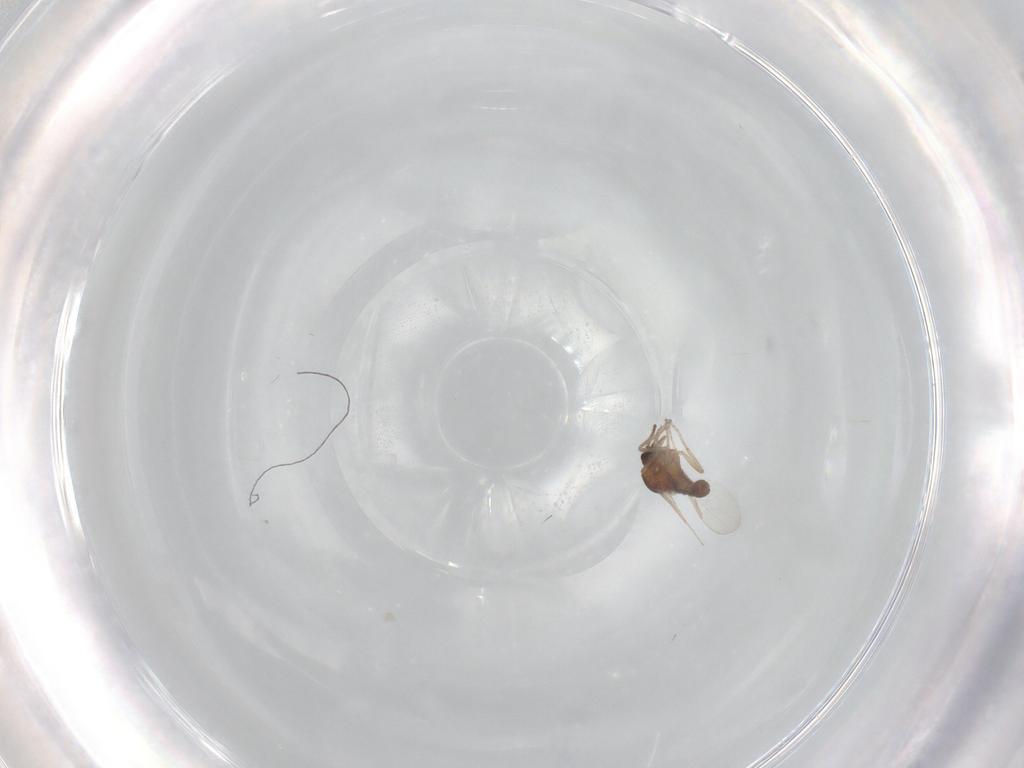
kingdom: Animalia
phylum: Arthropoda
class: Insecta
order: Diptera
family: Ceratopogonidae
